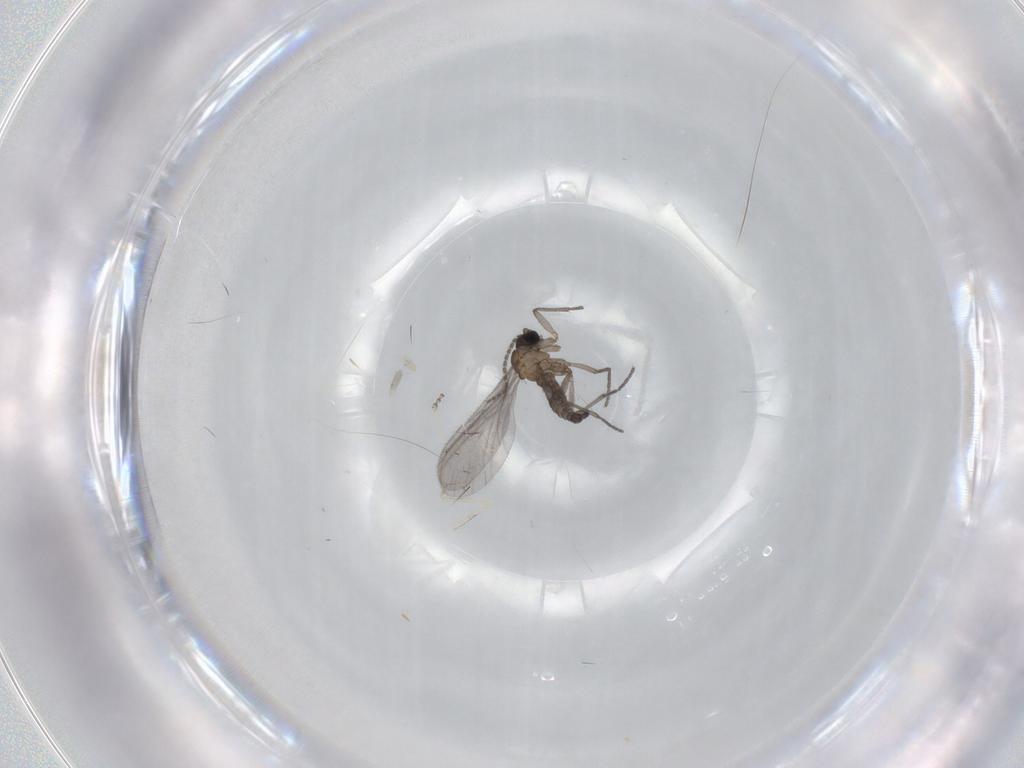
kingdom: Animalia
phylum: Arthropoda
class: Insecta
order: Diptera
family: Sciaridae
